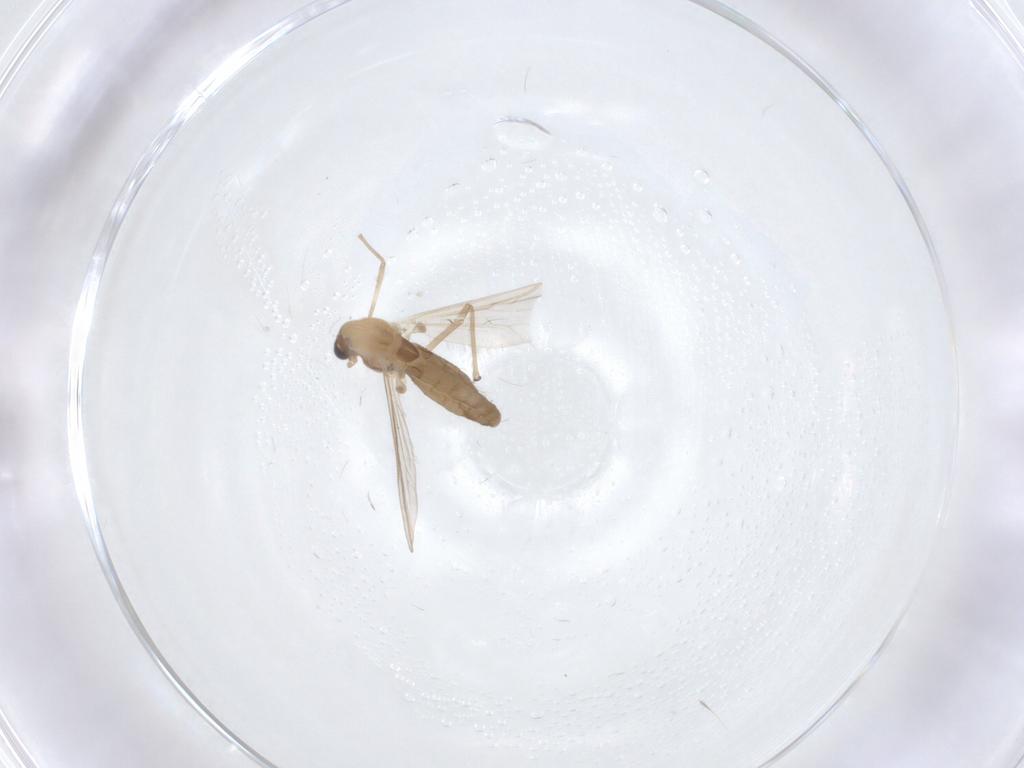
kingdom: Animalia
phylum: Arthropoda
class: Insecta
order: Diptera
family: Chironomidae
